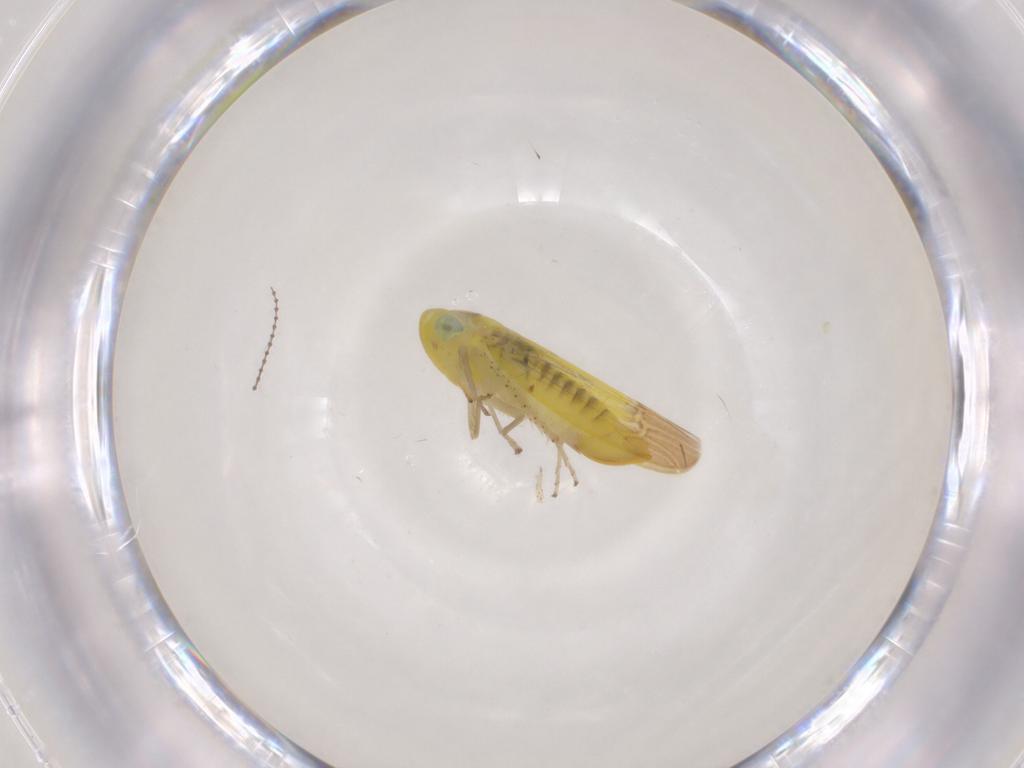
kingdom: Animalia
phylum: Arthropoda
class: Insecta
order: Hemiptera
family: Cicadellidae
